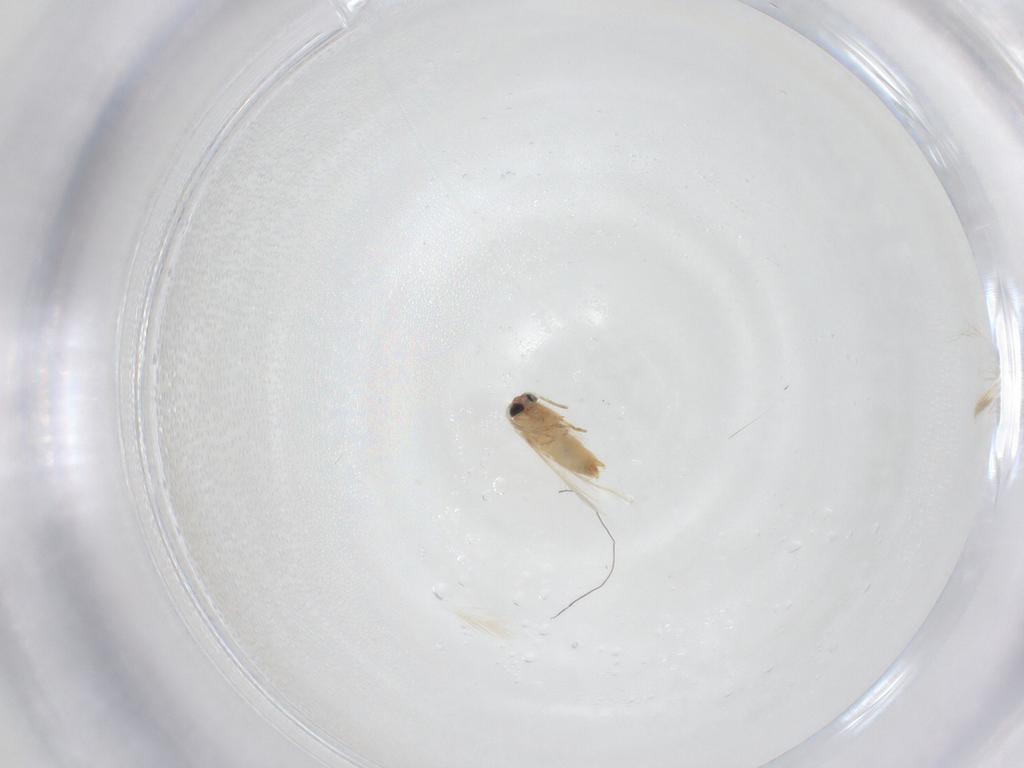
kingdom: Animalia
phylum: Arthropoda
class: Insecta
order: Lepidoptera
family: Crambidae
